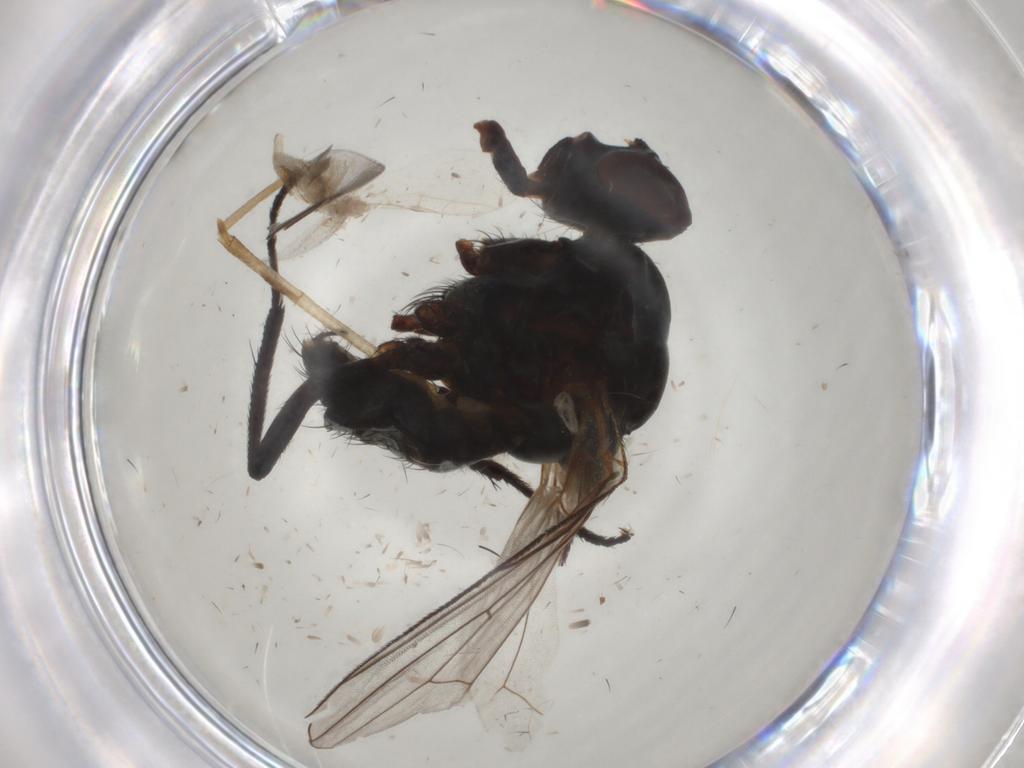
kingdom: Animalia
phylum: Arthropoda
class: Insecta
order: Diptera
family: Anthomyiidae
